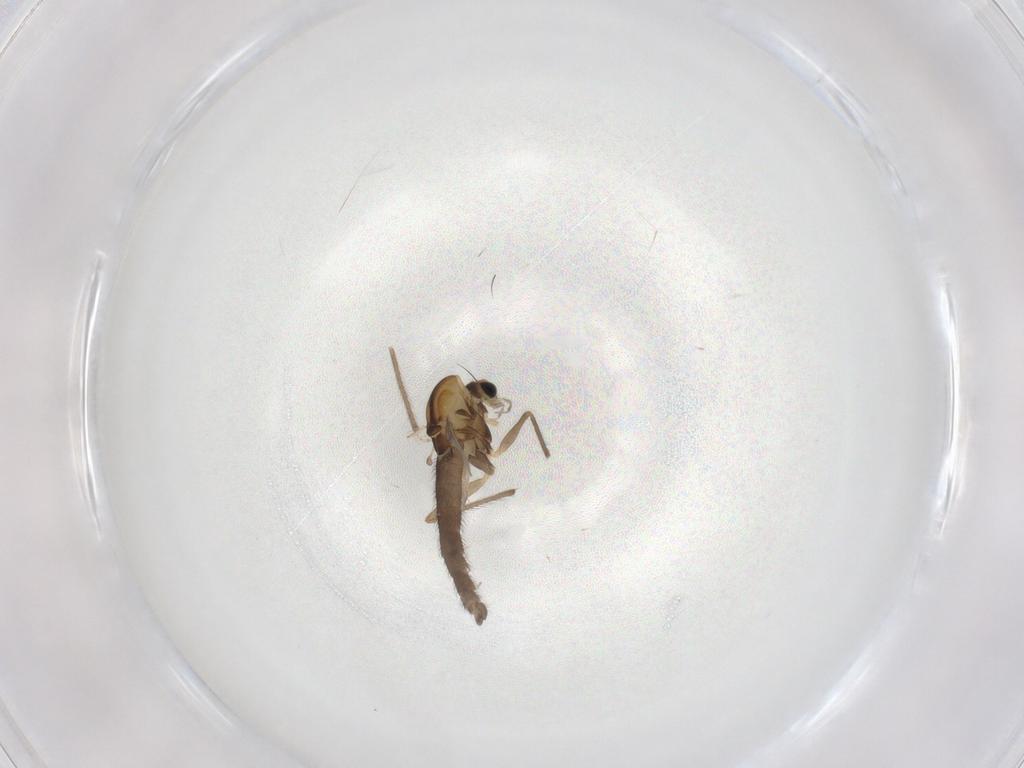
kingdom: Animalia
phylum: Arthropoda
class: Insecta
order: Diptera
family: Chironomidae
